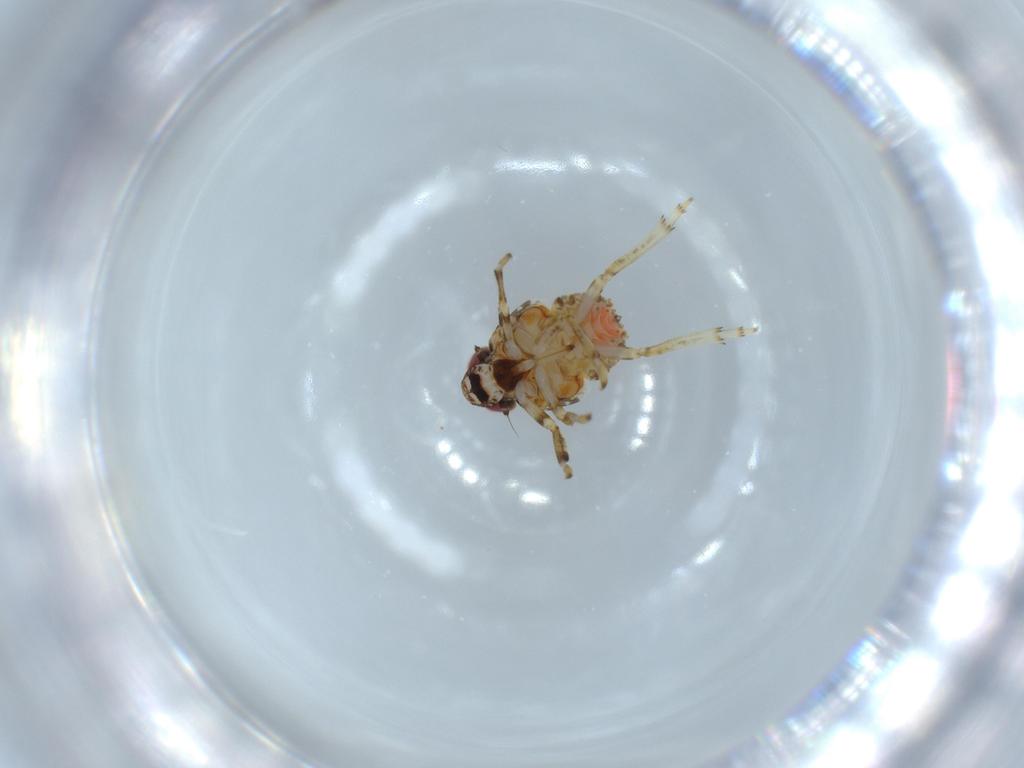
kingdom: Animalia
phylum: Arthropoda
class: Insecta
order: Hemiptera
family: Issidae
